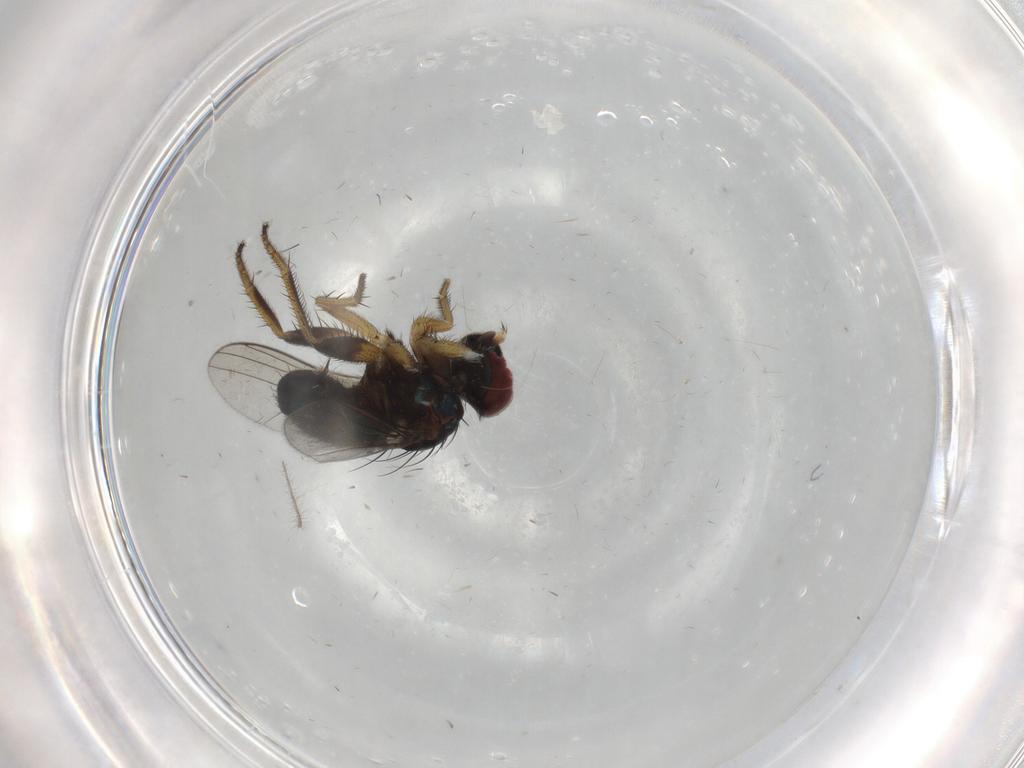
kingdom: Animalia
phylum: Arthropoda
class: Insecta
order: Diptera
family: Dolichopodidae
